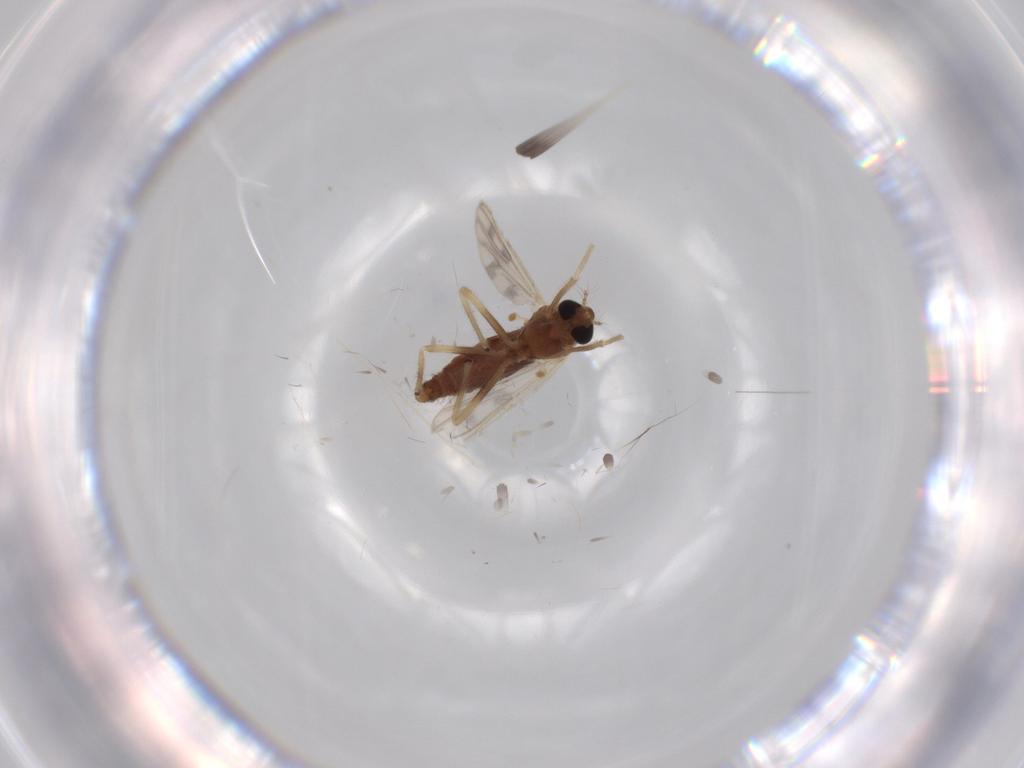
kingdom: Animalia
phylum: Arthropoda
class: Insecta
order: Diptera
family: Chironomidae
